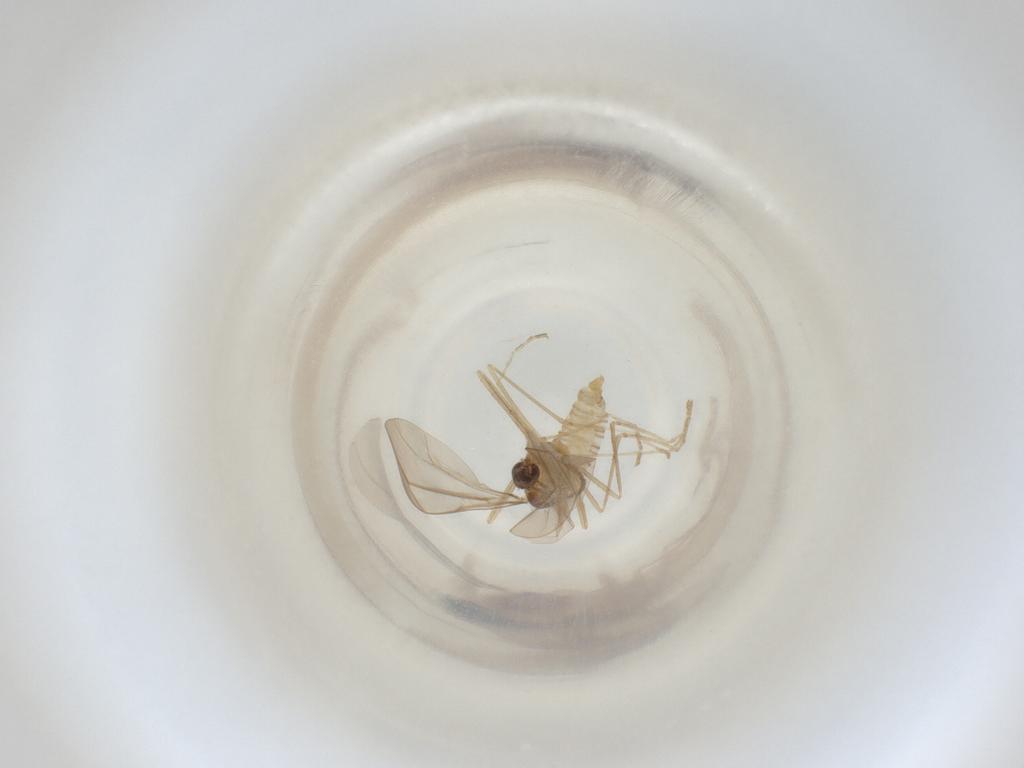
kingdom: Animalia
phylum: Arthropoda
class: Insecta
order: Diptera
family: Cecidomyiidae
